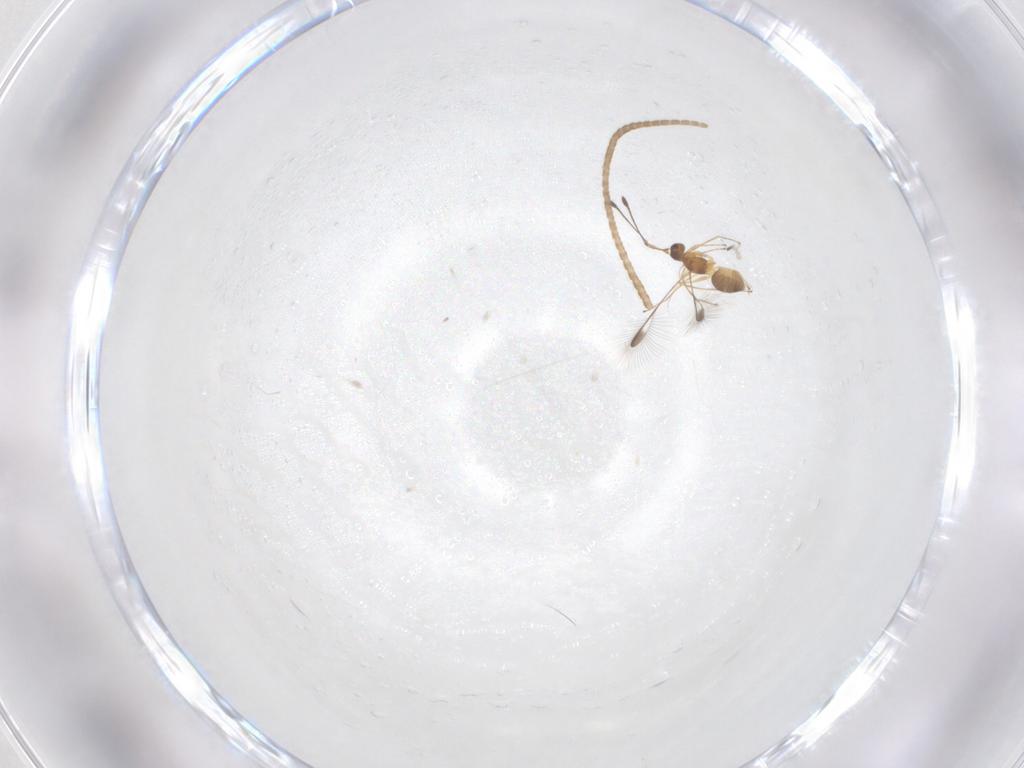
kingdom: Animalia
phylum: Arthropoda
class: Insecta
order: Hymenoptera
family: Mymaridae
